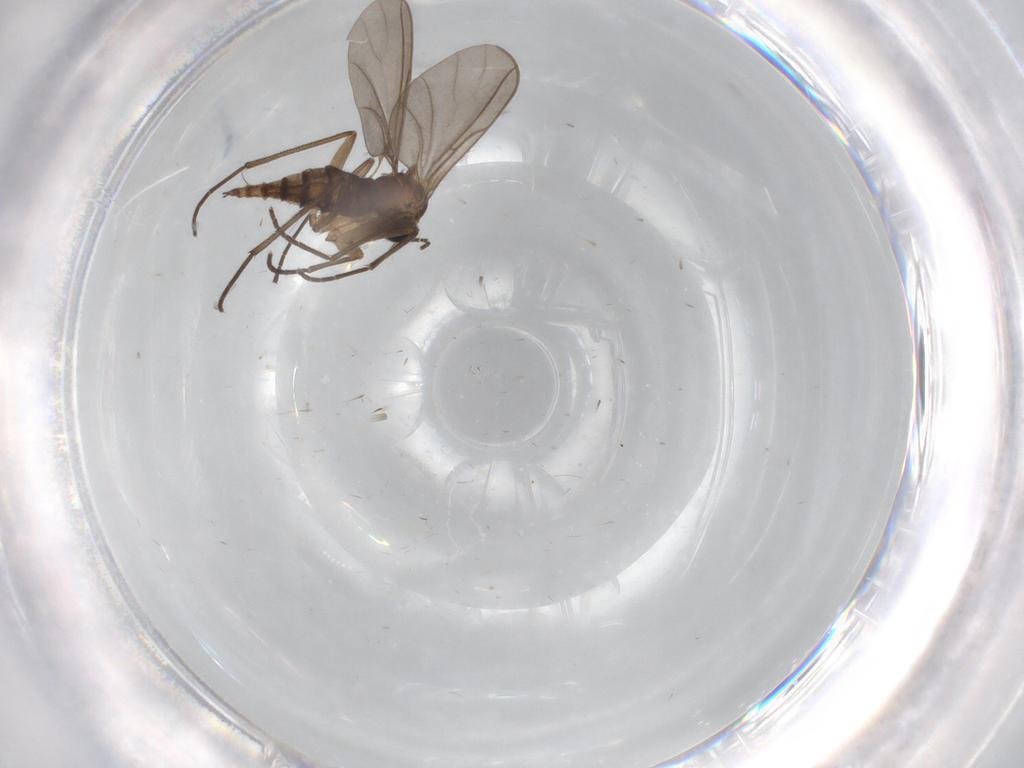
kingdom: Animalia
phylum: Arthropoda
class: Insecta
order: Diptera
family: Sciaridae
